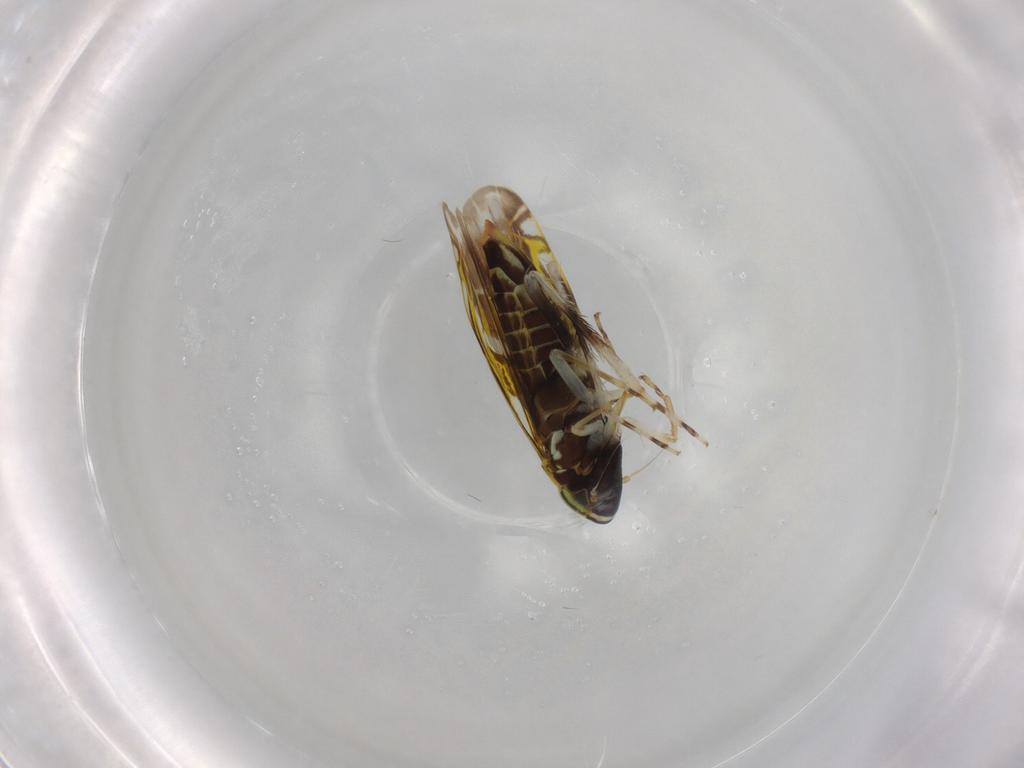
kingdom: Animalia
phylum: Arthropoda
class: Insecta
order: Hemiptera
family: Cicadellidae
